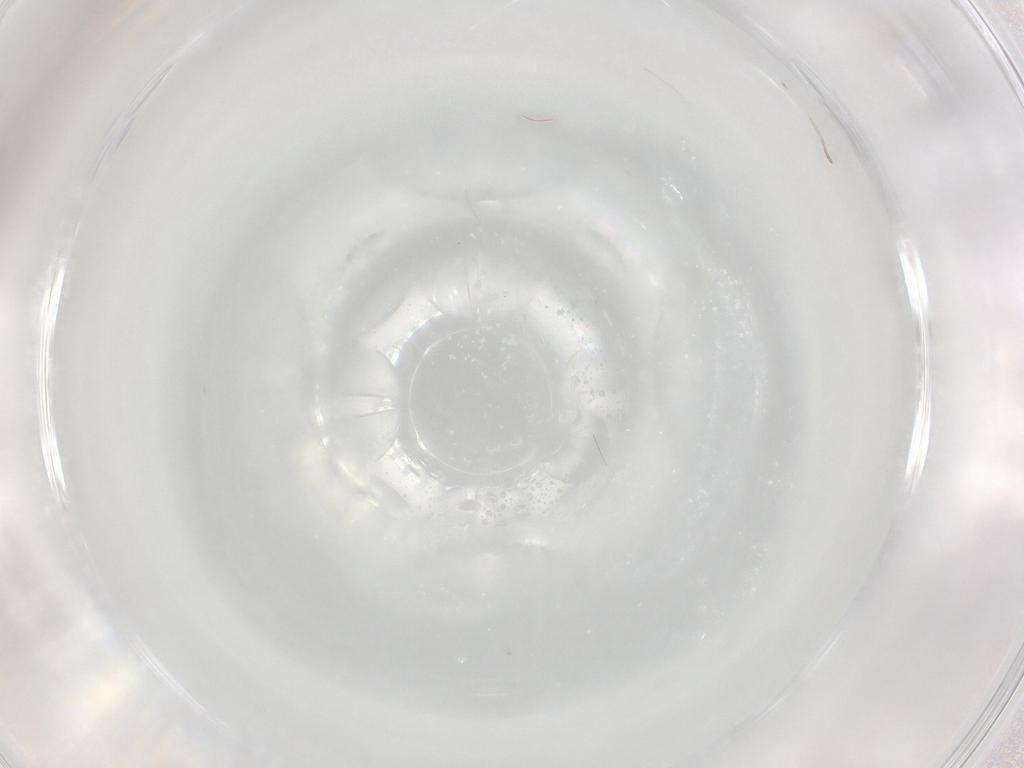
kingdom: Animalia
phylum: Arthropoda
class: Insecta
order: Diptera
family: Cecidomyiidae
